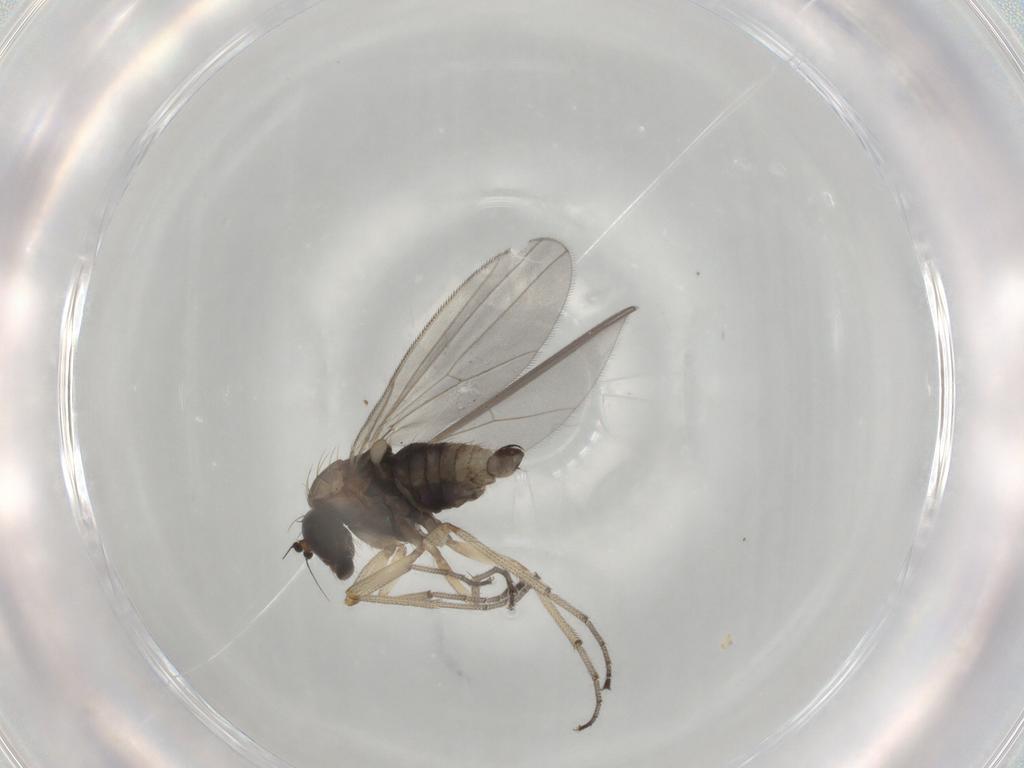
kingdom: Animalia
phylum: Arthropoda
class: Insecta
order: Diptera
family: Dolichopodidae
